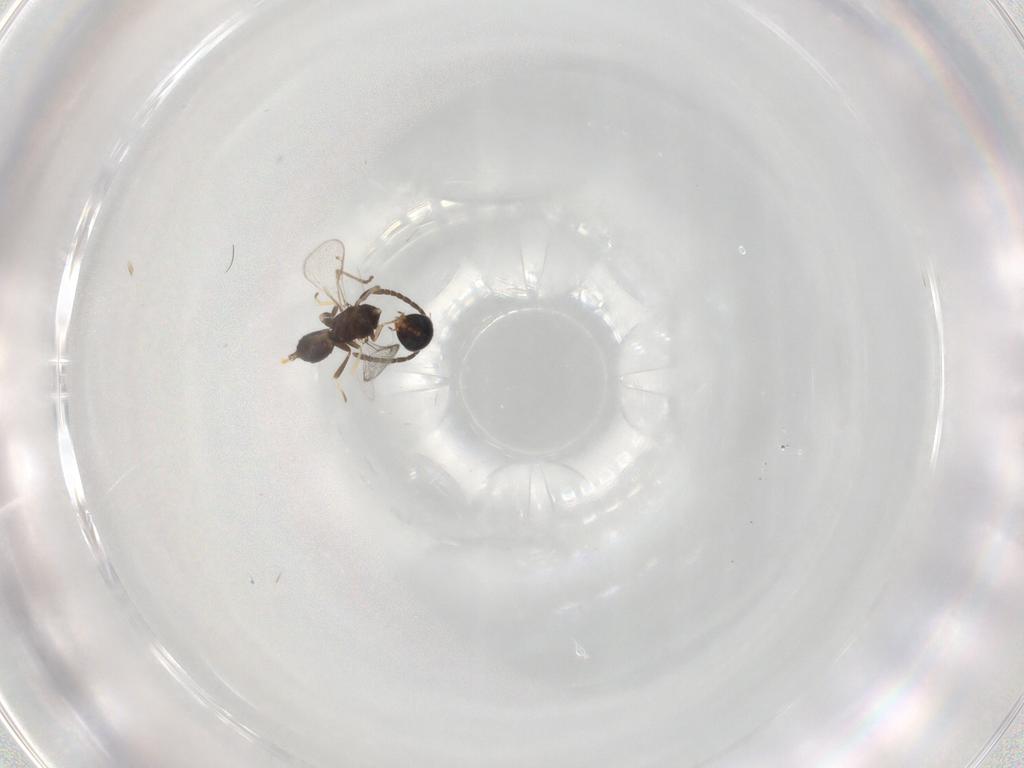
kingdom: Animalia
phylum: Arthropoda
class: Insecta
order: Hymenoptera
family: Eupelmidae
